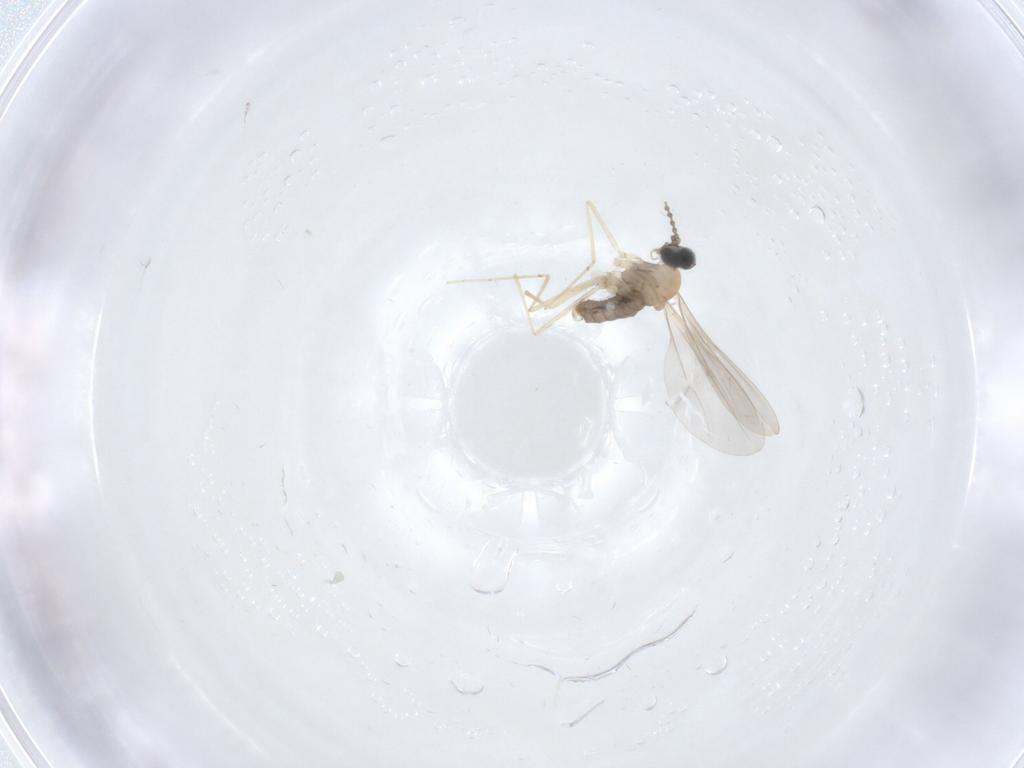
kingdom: Animalia
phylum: Arthropoda
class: Insecta
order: Diptera
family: Cecidomyiidae
